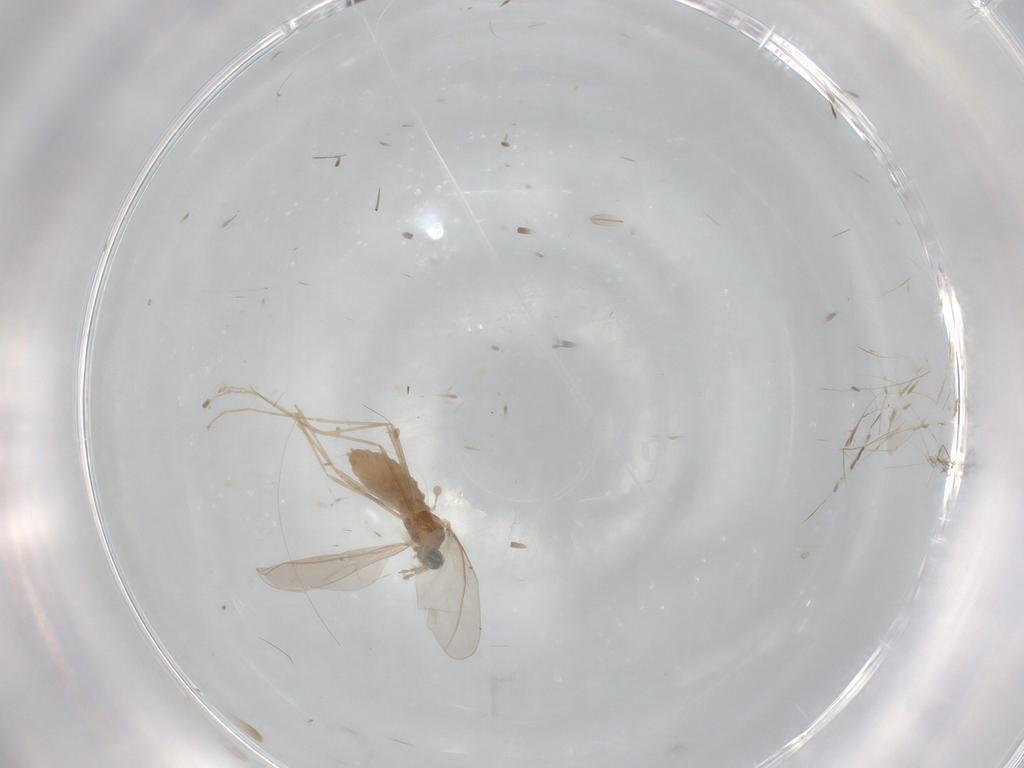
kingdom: Animalia
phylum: Arthropoda
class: Insecta
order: Diptera
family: Cecidomyiidae
